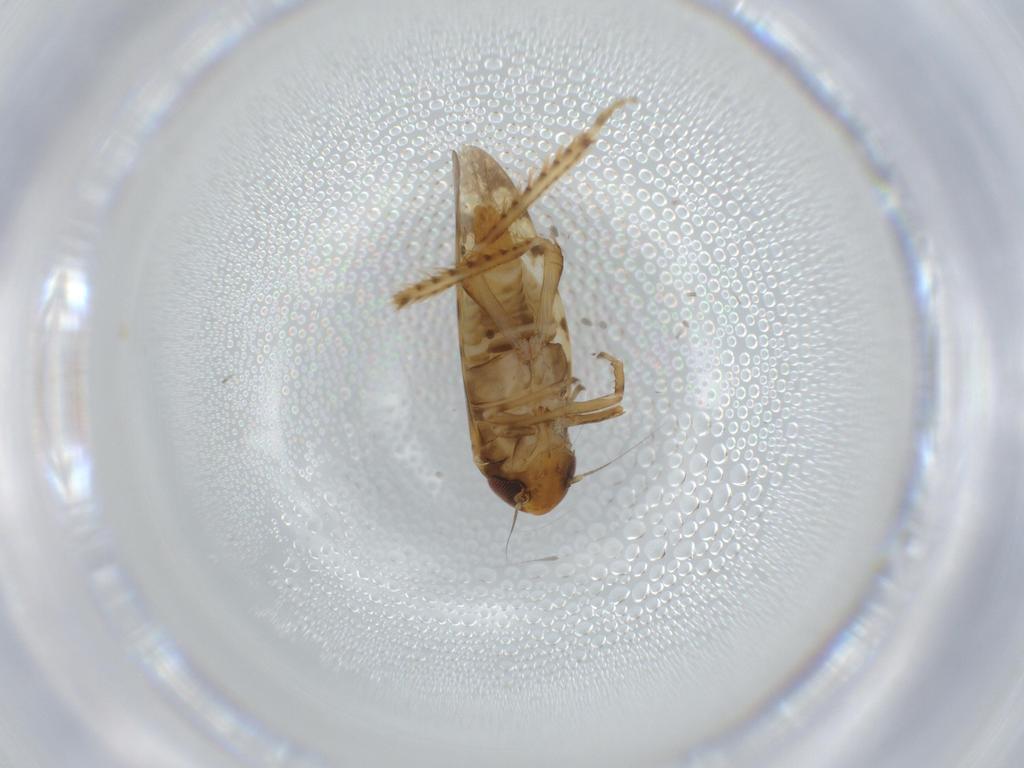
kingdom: Animalia
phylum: Arthropoda
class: Insecta
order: Hemiptera
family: Cicadellidae
